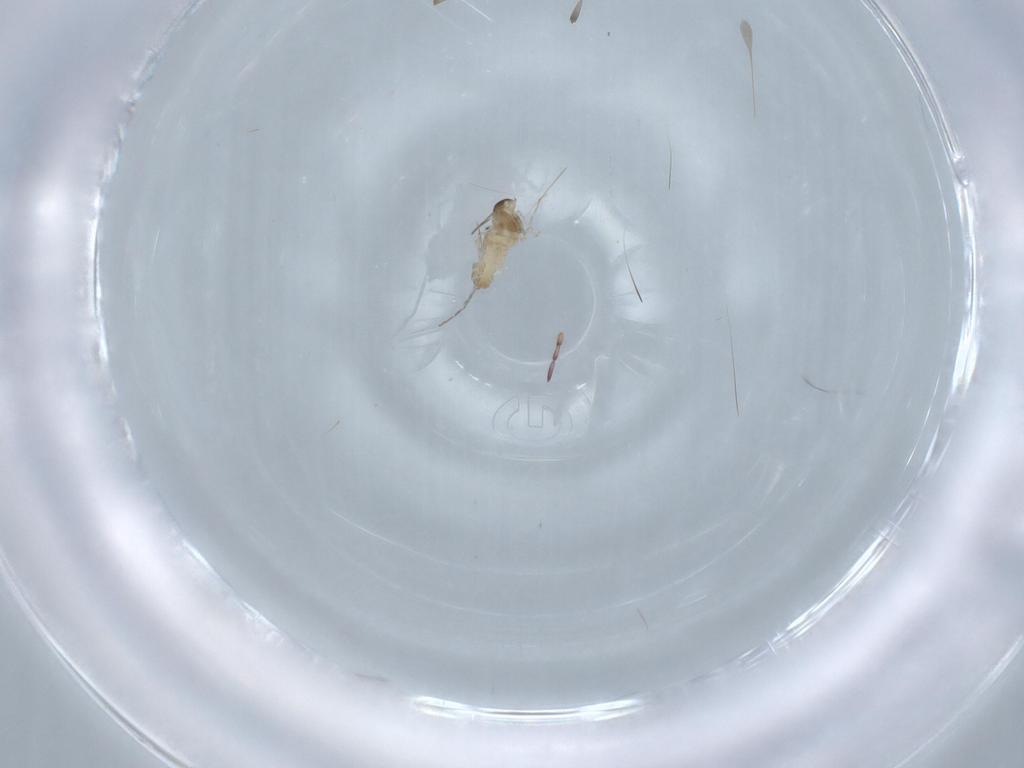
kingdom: Animalia
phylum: Arthropoda
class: Insecta
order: Diptera
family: Cecidomyiidae
